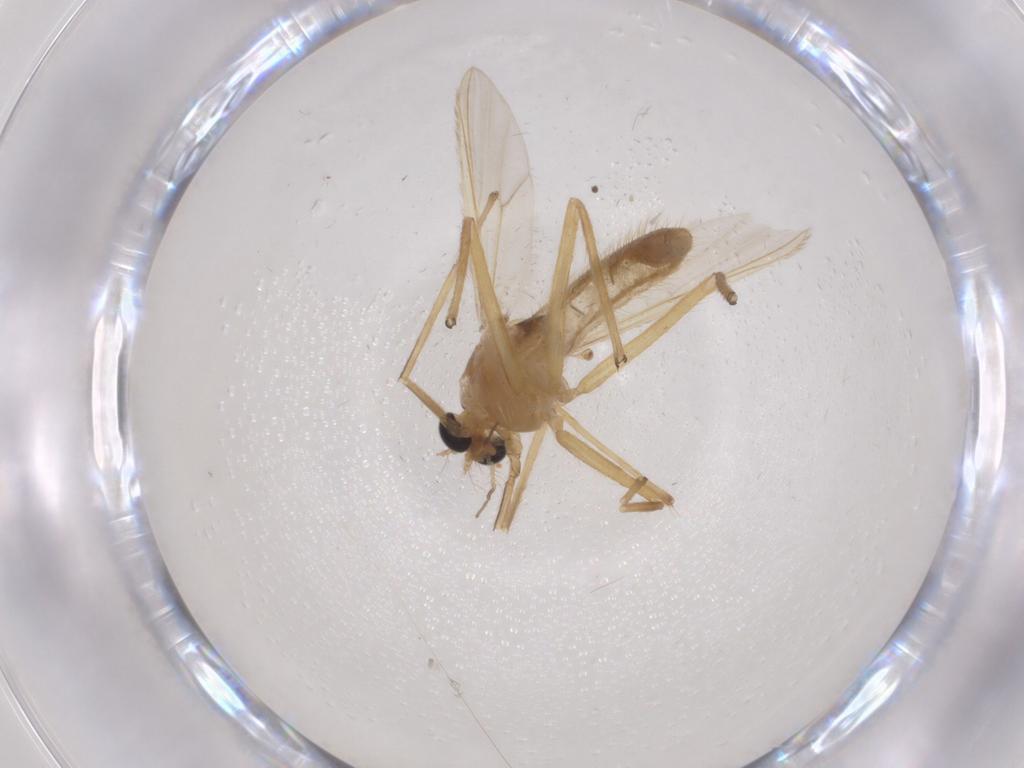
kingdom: Animalia
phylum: Arthropoda
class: Insecta
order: Diptera
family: Chironomidae
